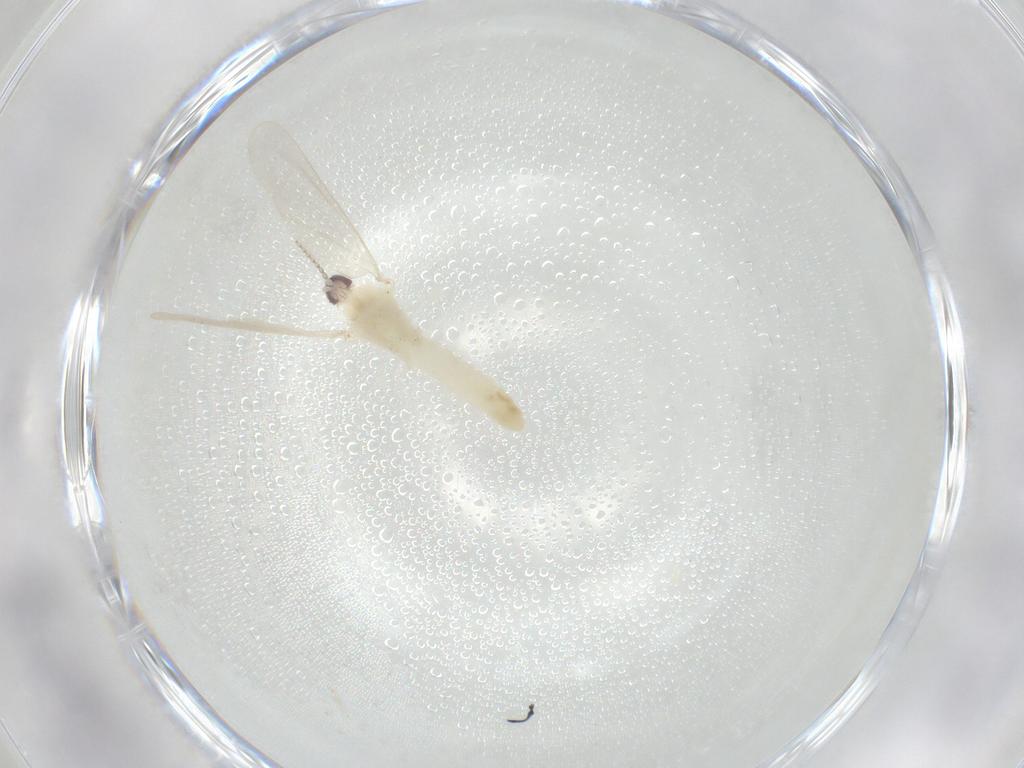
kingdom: Animalia
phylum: Arthropoda
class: Insecta
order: Diptera
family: Cecidomyiidae
